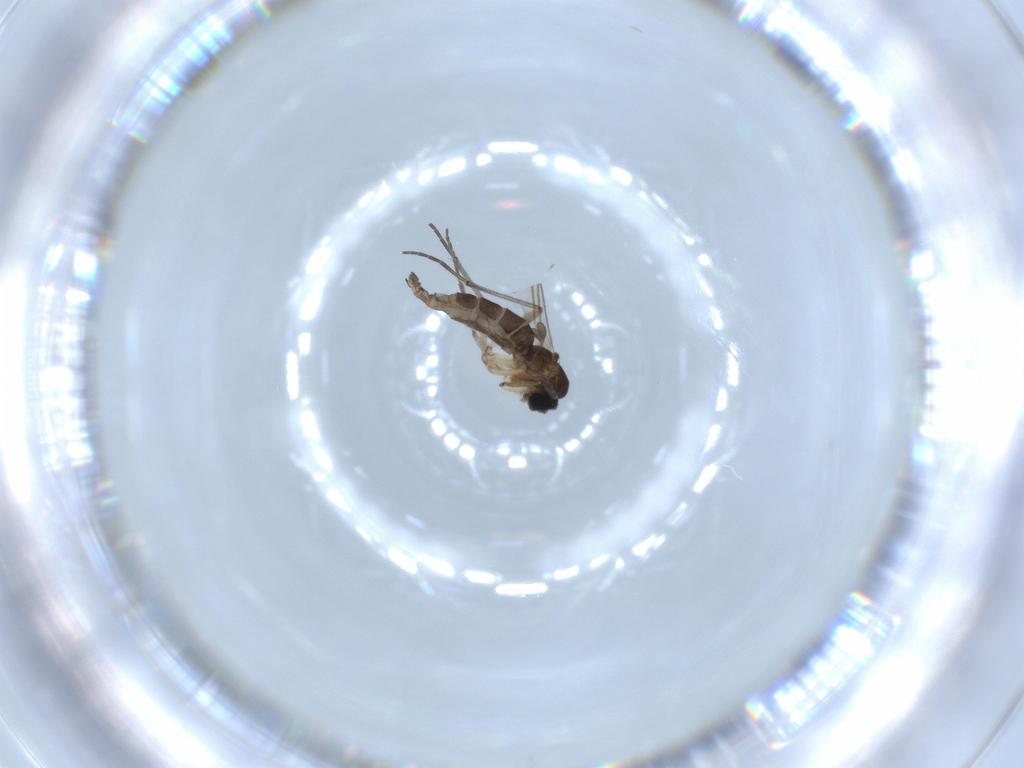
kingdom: Animalia
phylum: Arthropoda
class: Insecta
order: Diptera
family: Sciaridae
